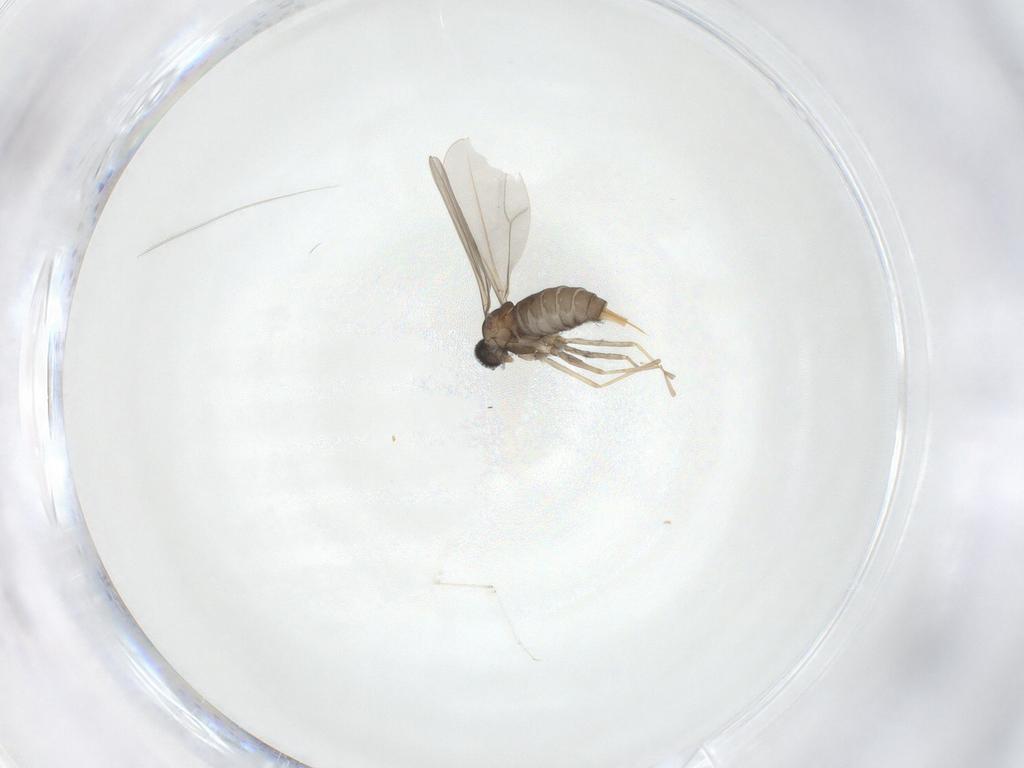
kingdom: Animalia
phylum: Arthropoda
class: Insecta
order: Diptera
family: Cecidomyiidae
